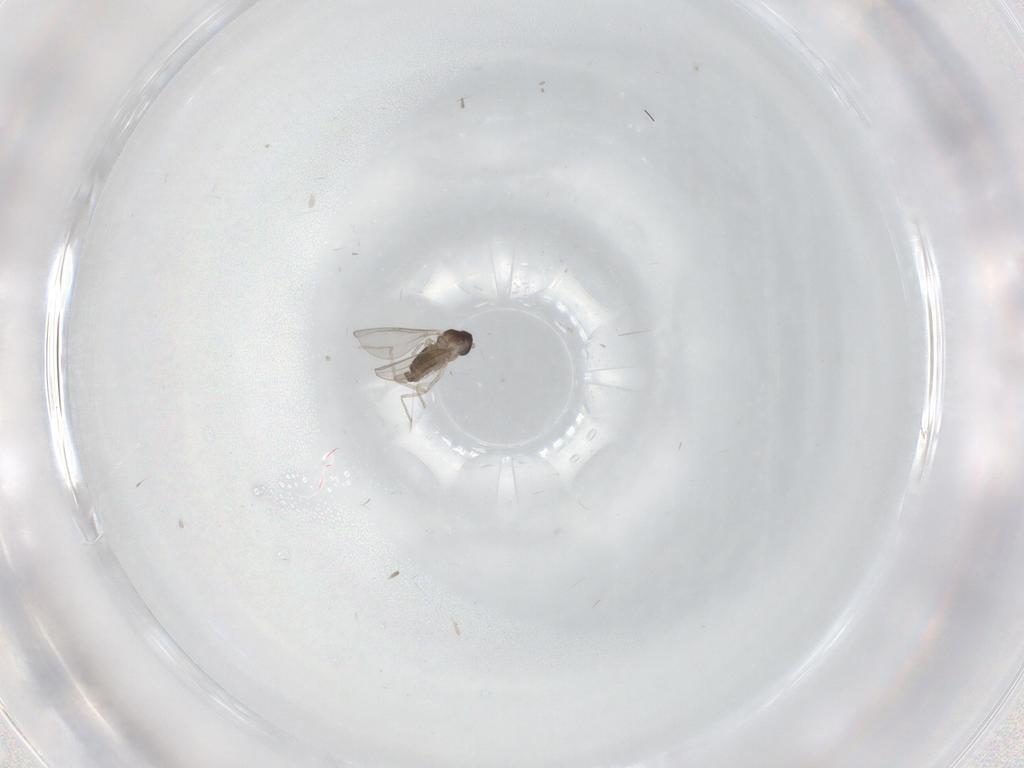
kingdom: Animalia
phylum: Arthropoda
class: Insecta
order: Diptera
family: Cecidomyiidae
